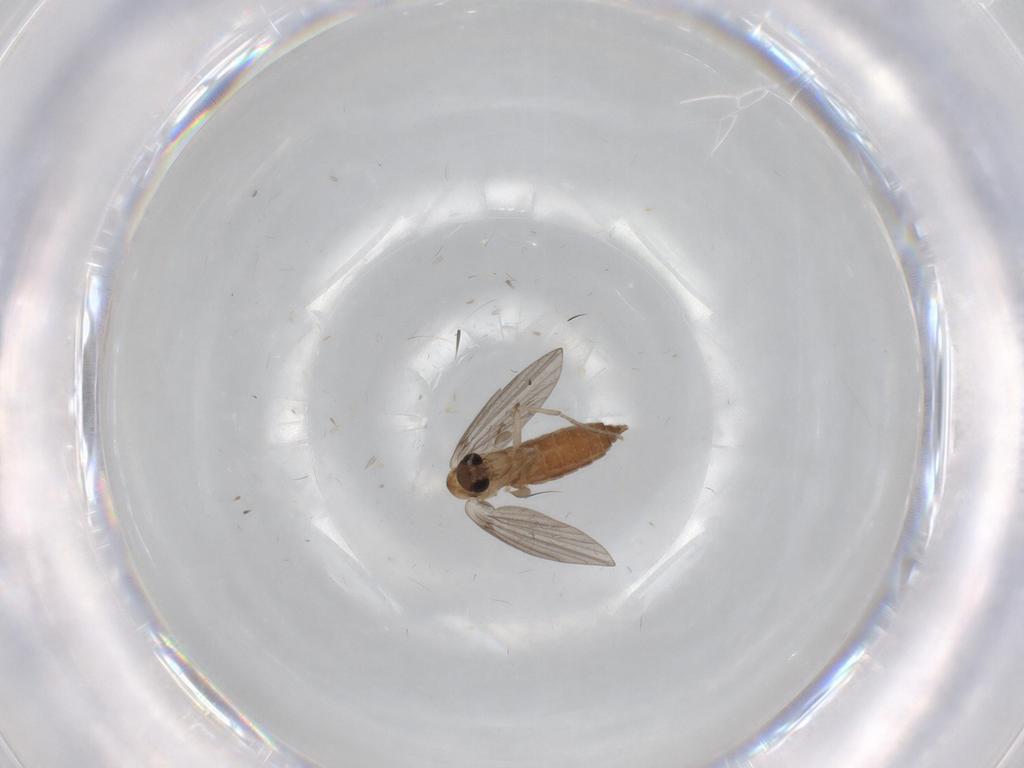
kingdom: Animalia
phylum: Arthropoda
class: Insecta
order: Diptera
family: Cecidomyiidae
